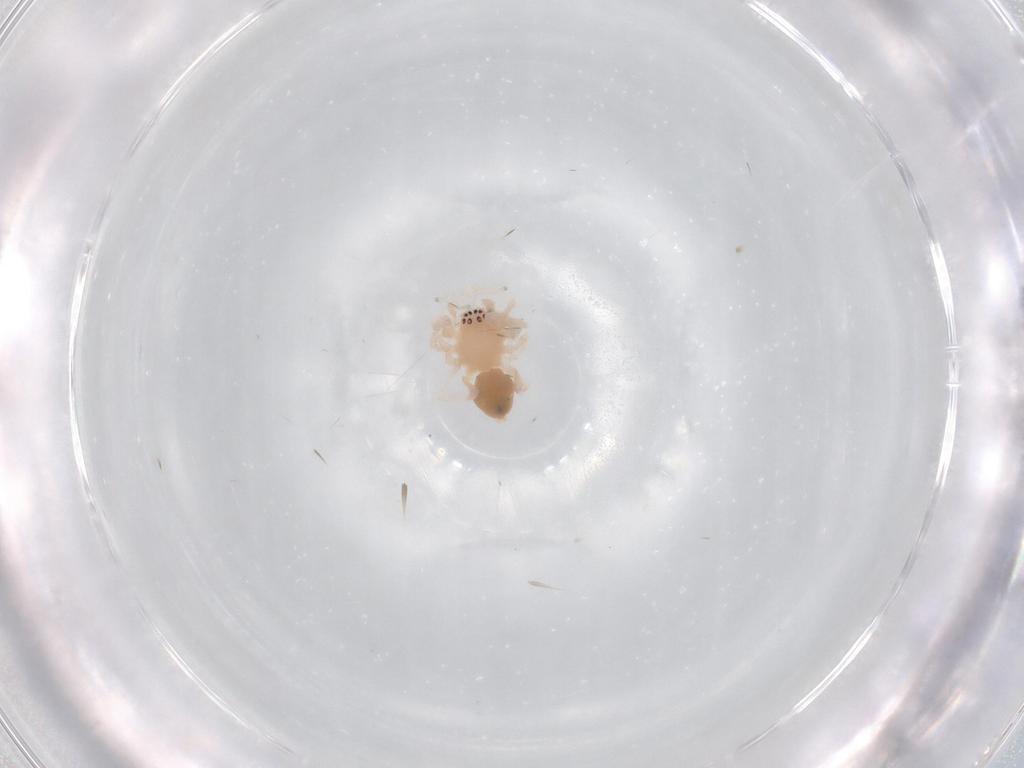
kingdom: Animalia
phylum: Arthropoda
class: Arachnida
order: Araneae
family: Anyphaenidae
